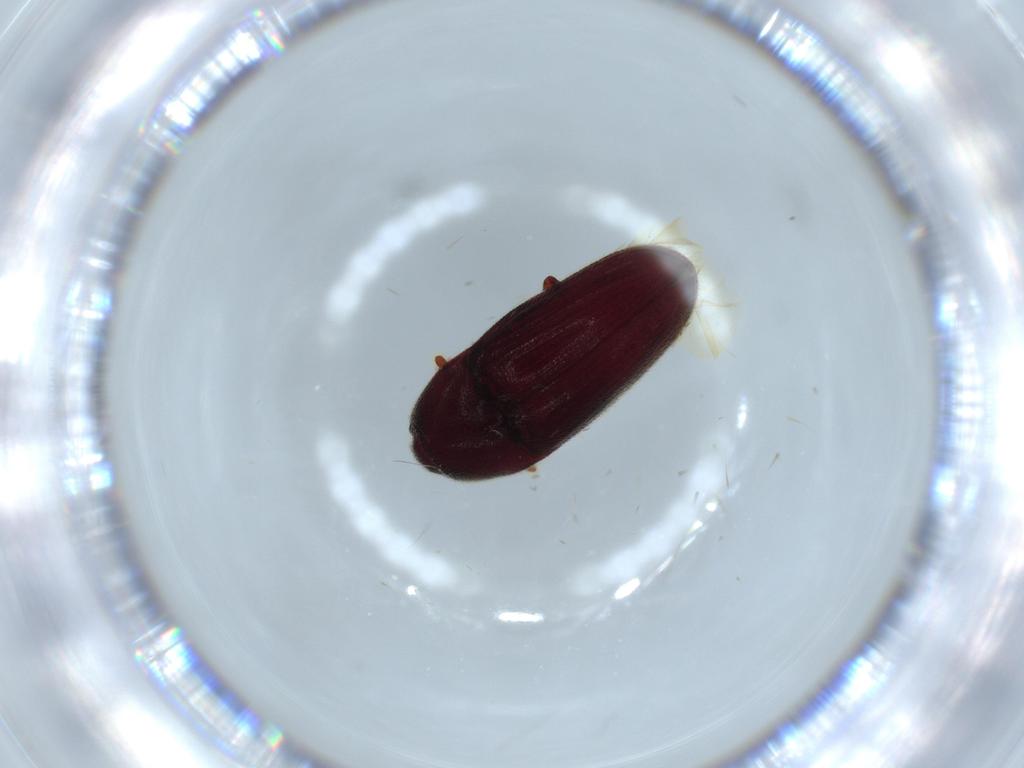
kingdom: Animalia
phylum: Arthropoda
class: Insecta
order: Coleoptera
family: Throscidae
